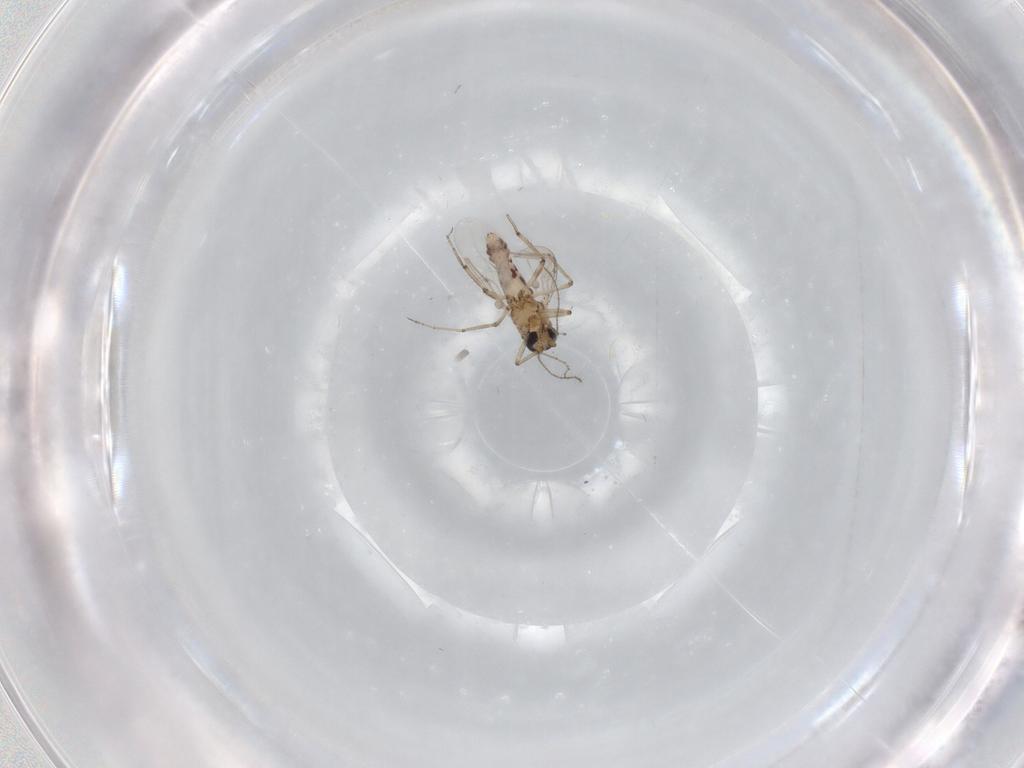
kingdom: Animalia
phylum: Arthropoda
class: Insecta
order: Diptera
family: Ceratopogonidae
